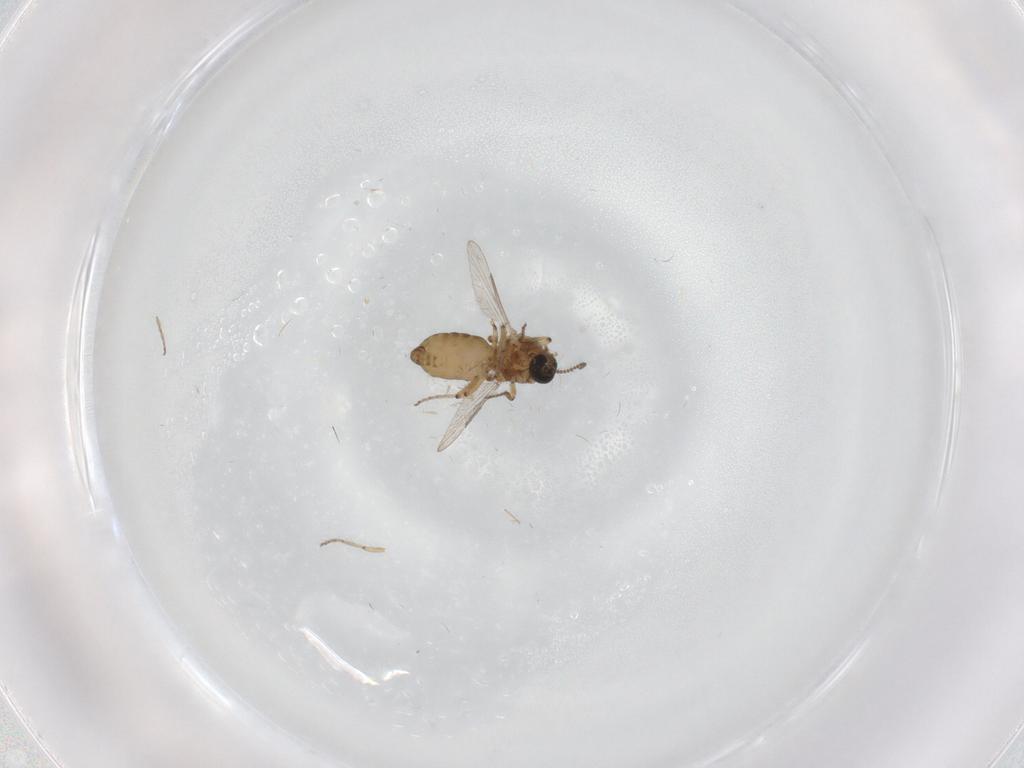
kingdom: Animalia
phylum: Arthropoda
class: Insecta
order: Diptera
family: Ceratopogonidae
